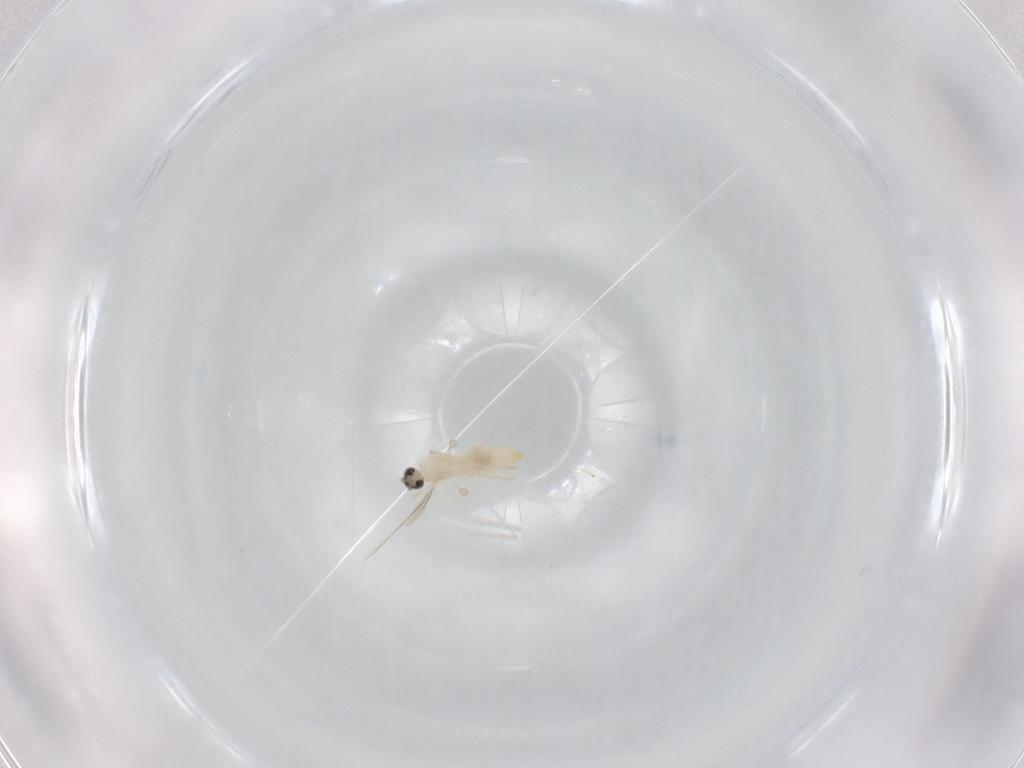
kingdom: Animalia
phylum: Arthropoda
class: Insecta
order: Diptera
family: Cecidomyiidae
